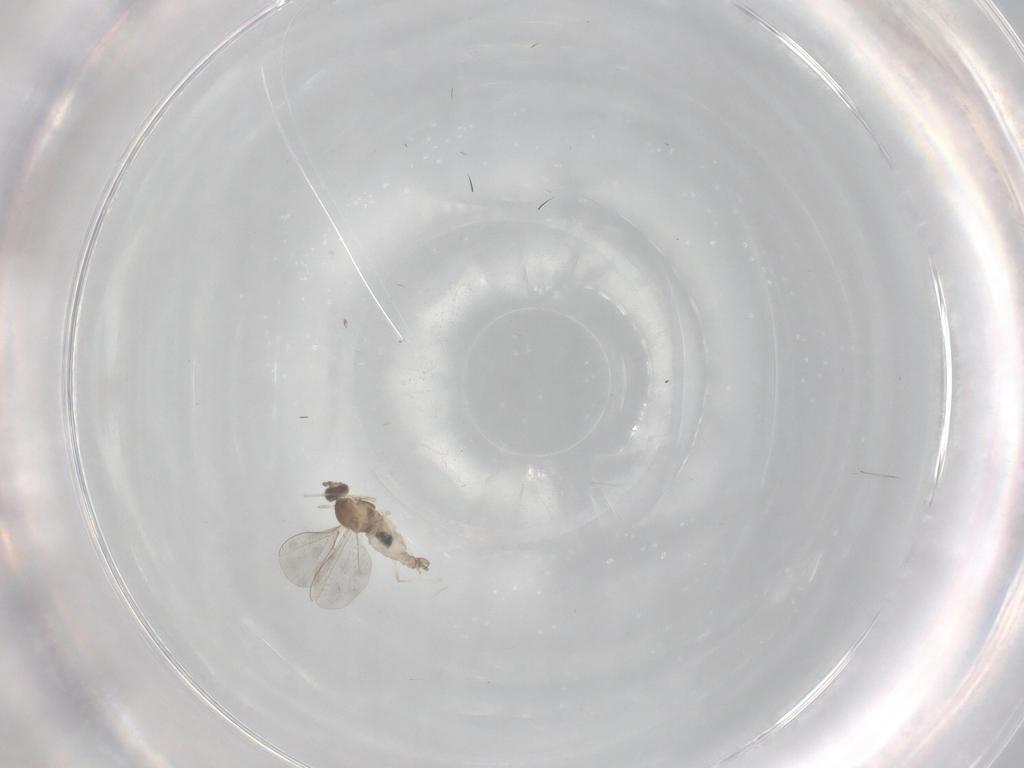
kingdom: Animalia
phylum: Arthropoda
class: Insecta
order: Diptera
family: Cecidomyiidae
